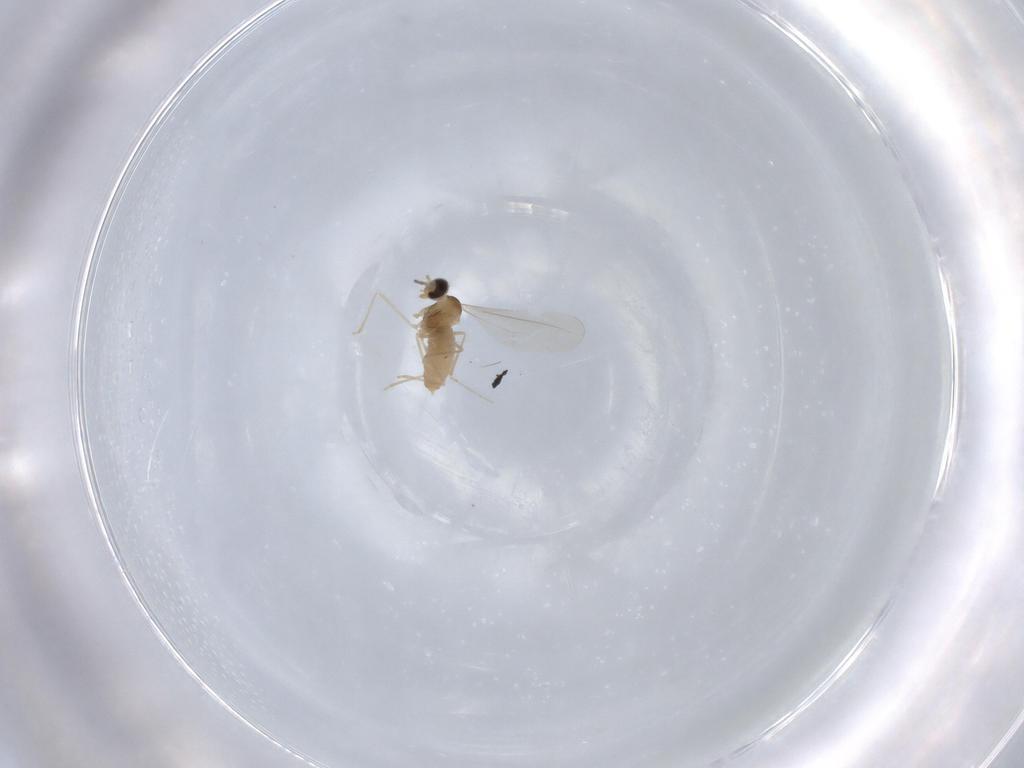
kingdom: Animalia
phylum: Arthropoda
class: Insecta
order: Diptera
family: Cecidomyiidae
